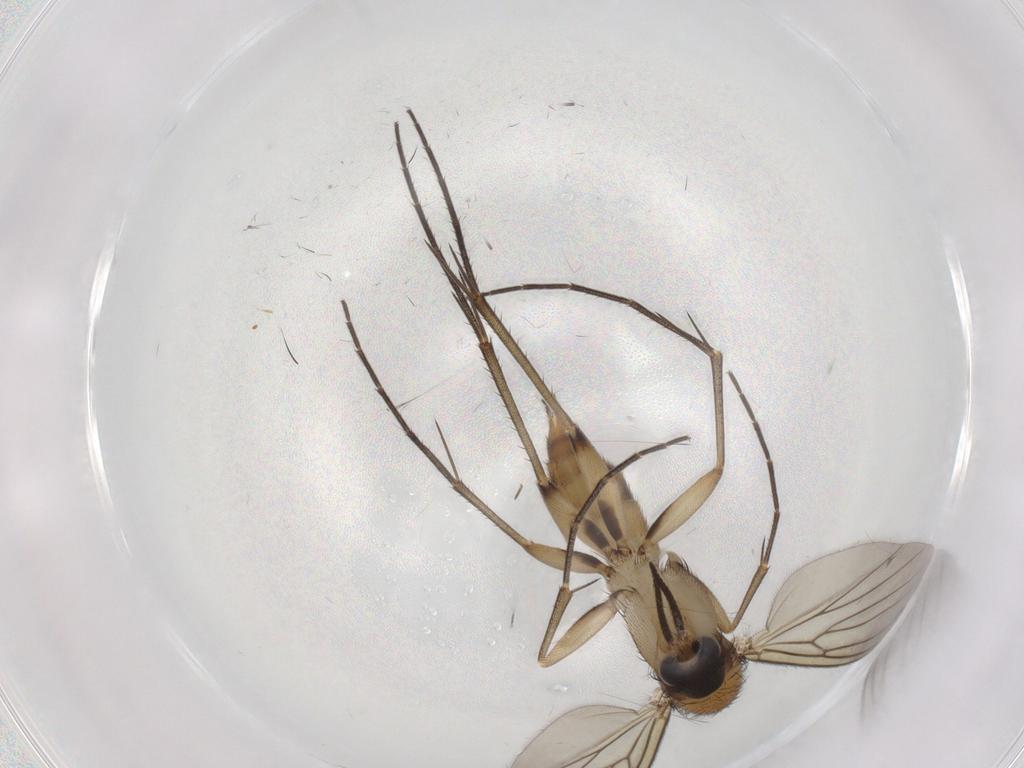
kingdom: Animalia
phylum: Arthropoda
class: Insecta
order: Diptera
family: Mycetophilidae
